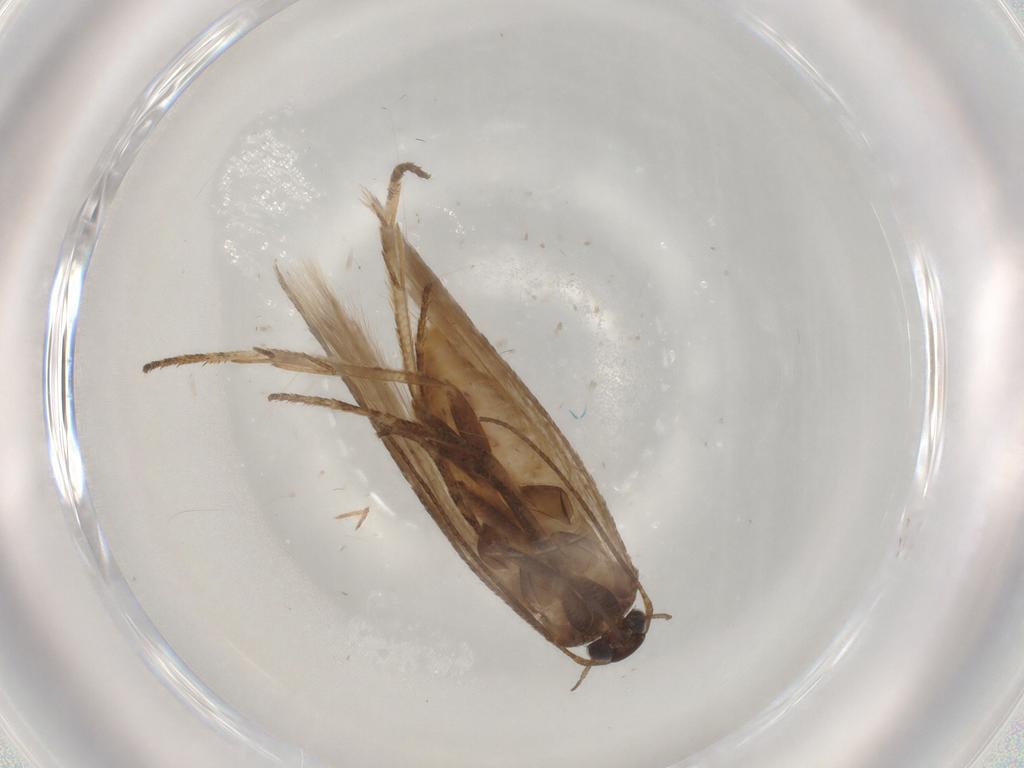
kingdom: Animalia
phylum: Arthropoda
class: Insecta
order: Lepidoptera
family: Gelechiidae
